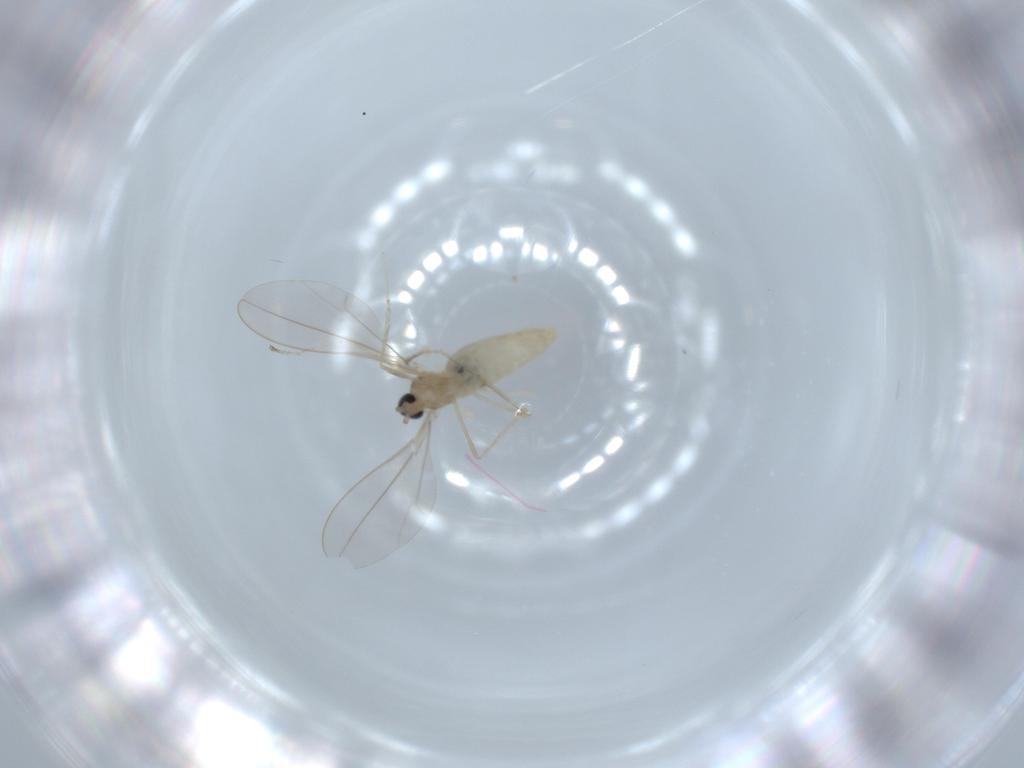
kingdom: Animalia
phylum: Arthropoda
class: Insecta
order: Diptera
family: Cecidomyiidae
